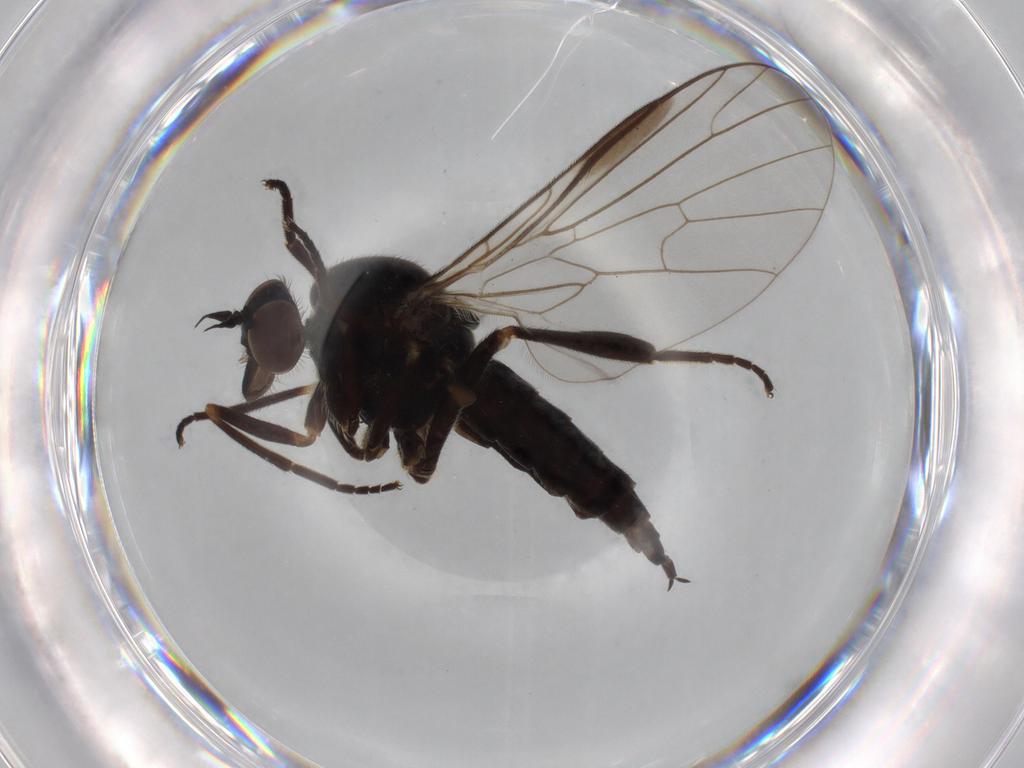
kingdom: Animalia
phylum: Arthropoda
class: Insecta
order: Diptera
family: Empididae
